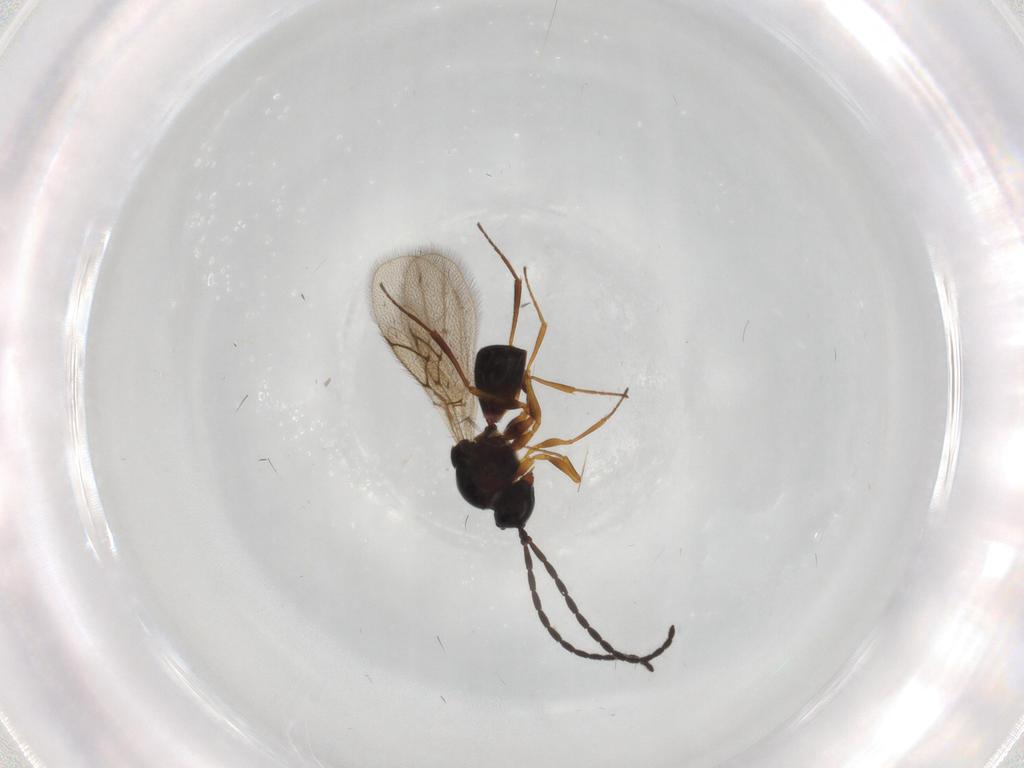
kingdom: Animalia
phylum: Arthropoda
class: Insecta
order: Hymenoptera
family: Figitidae
